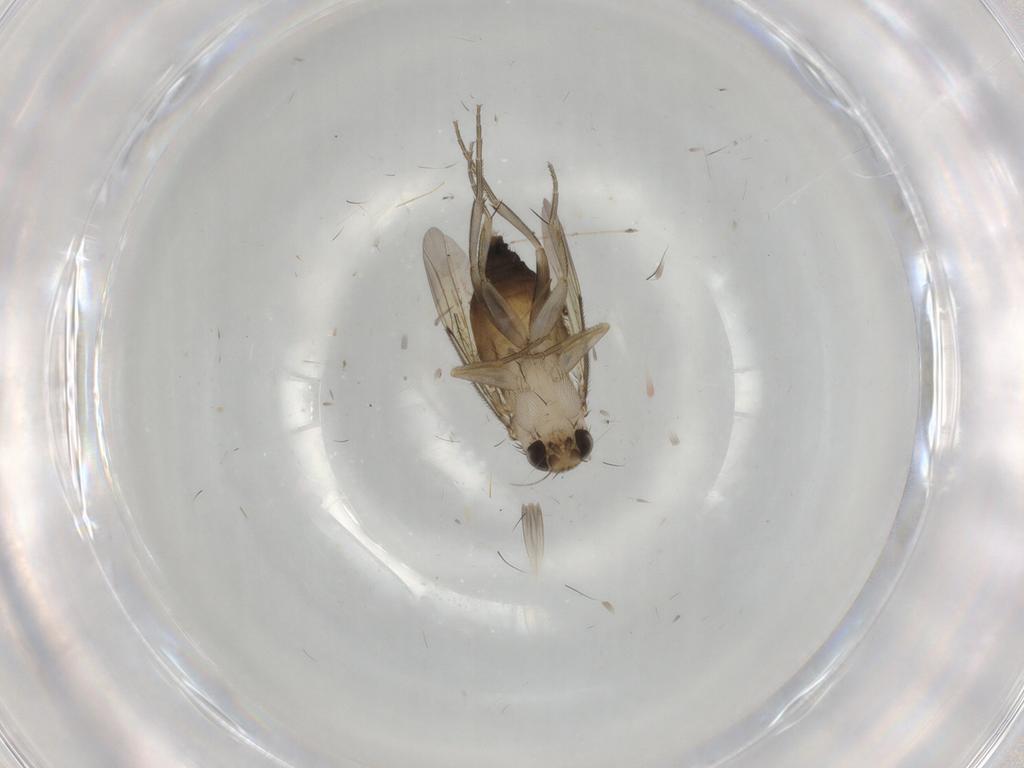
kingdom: Animalia
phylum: Arthropoda
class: Insecta
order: Diptera
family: Phoridae
